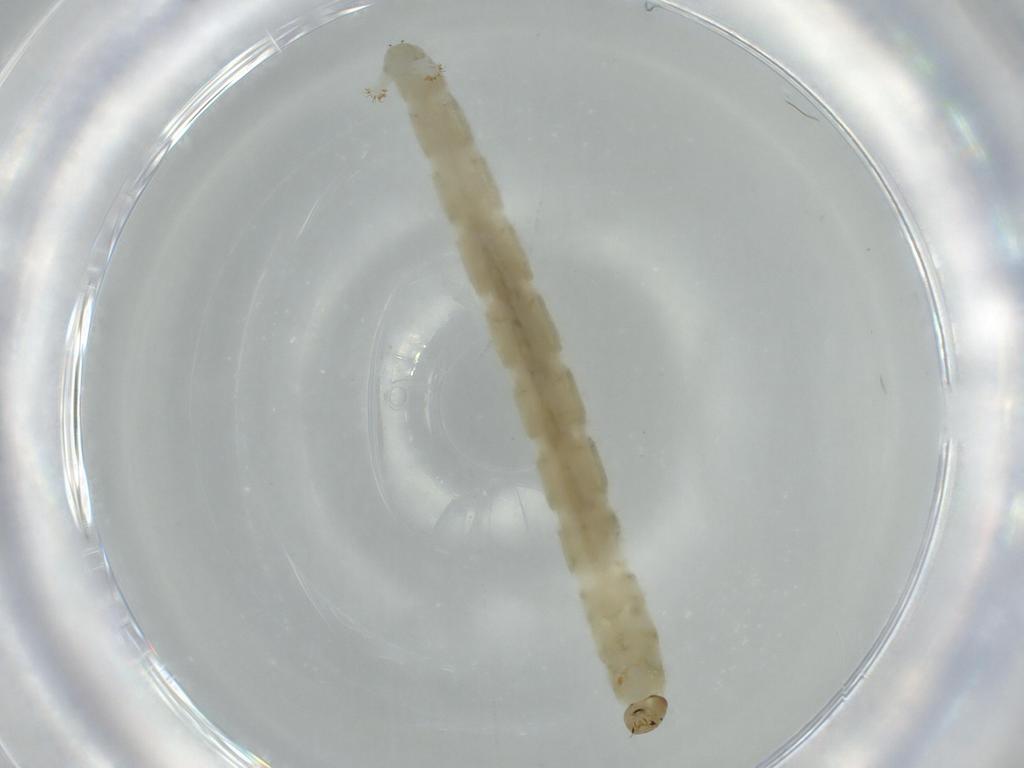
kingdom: Animalia
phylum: Arthropoda
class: Insecta
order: Diptera
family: Chironomidae
